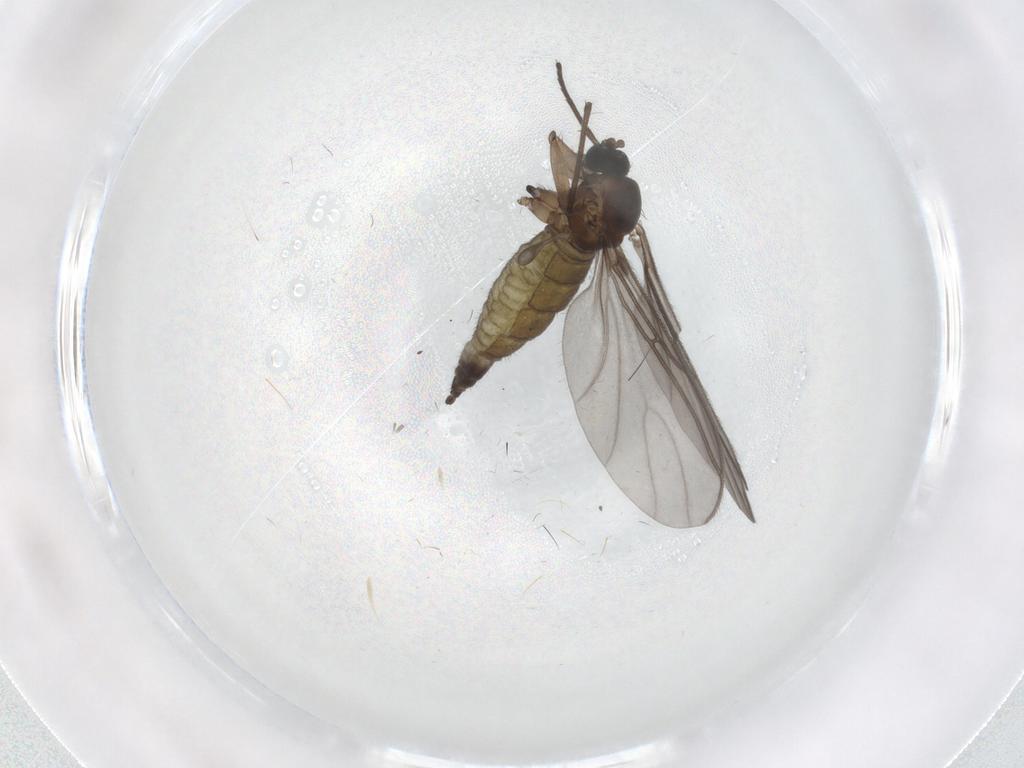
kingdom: Animalia
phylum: Arthropoda
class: Insecta
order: Diptera
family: Sciaridae
